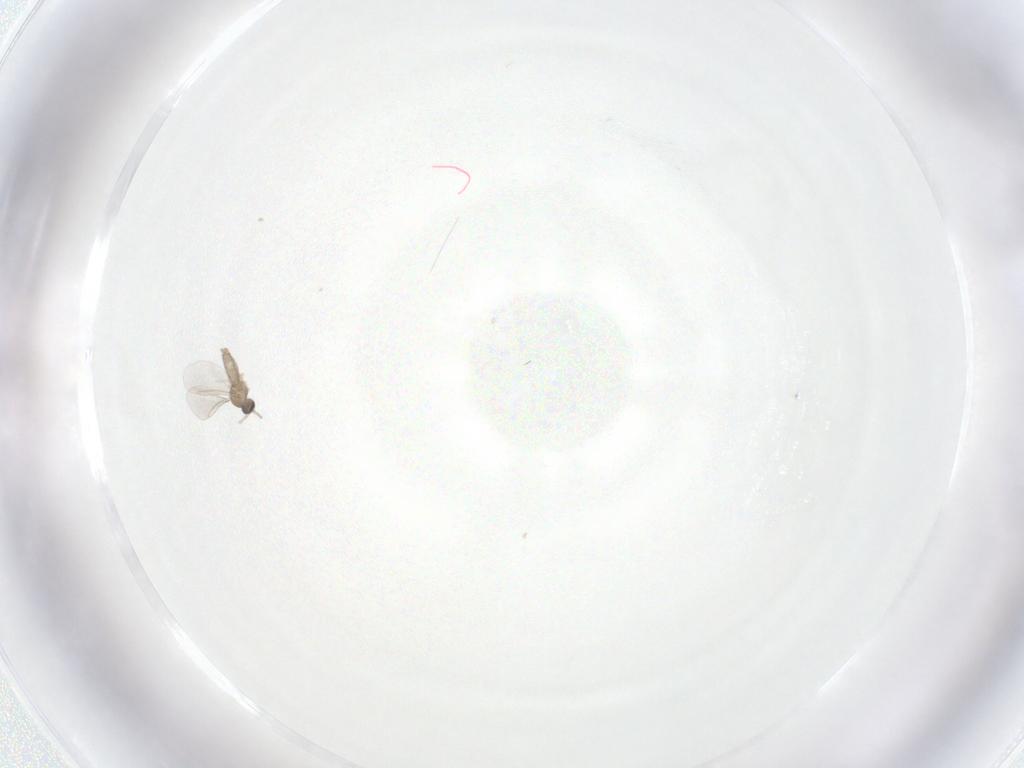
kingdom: Animalia
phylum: Arthropoda
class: Insecta
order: Diptera
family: Cecidomyiidae
